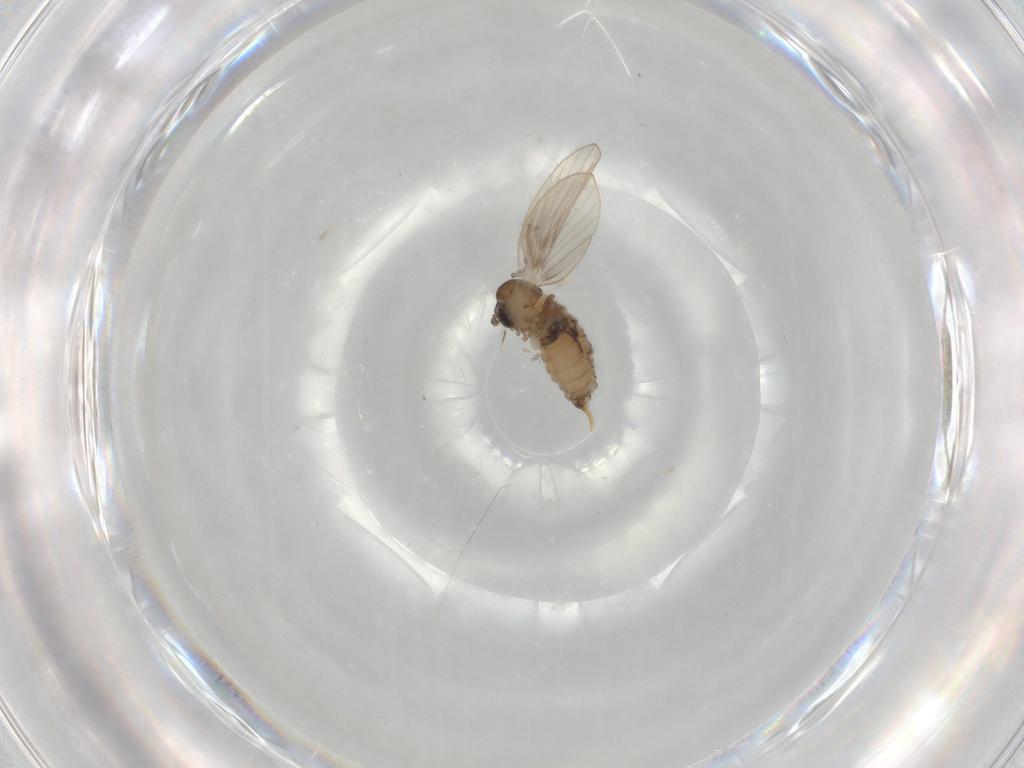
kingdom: Animalia
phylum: Arthropoda
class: Insecta
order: Diptera
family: Psychodidae
